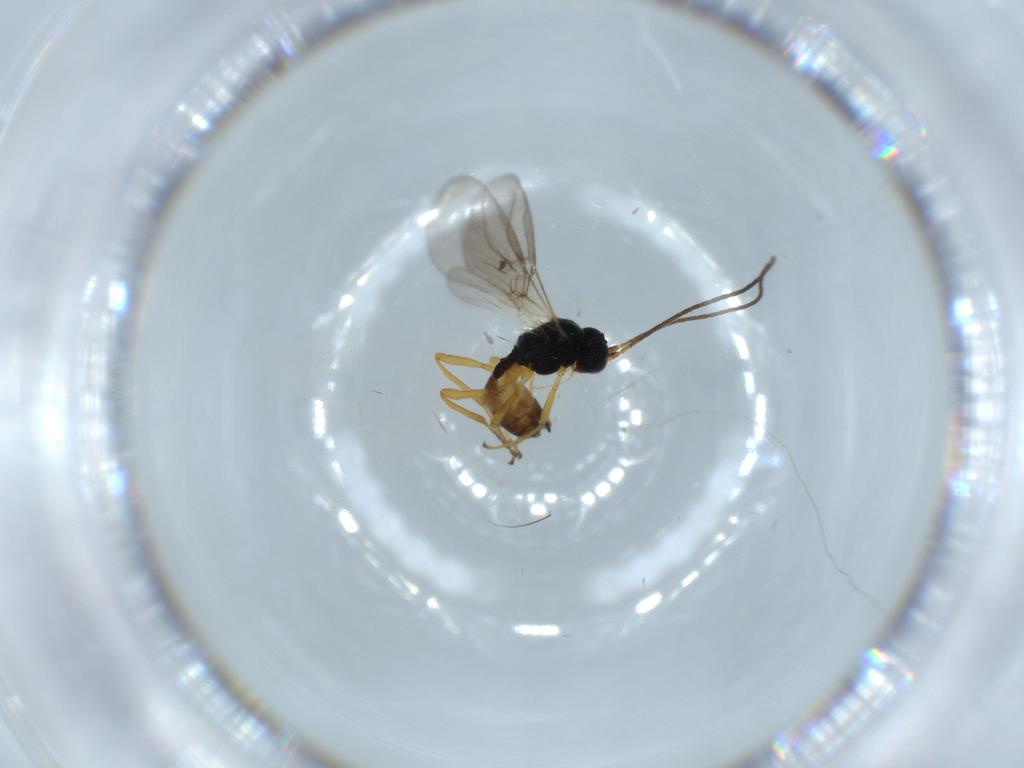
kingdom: Animalia
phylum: Arthropoda
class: Insecta
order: Hymenoptera
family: Braconidae
